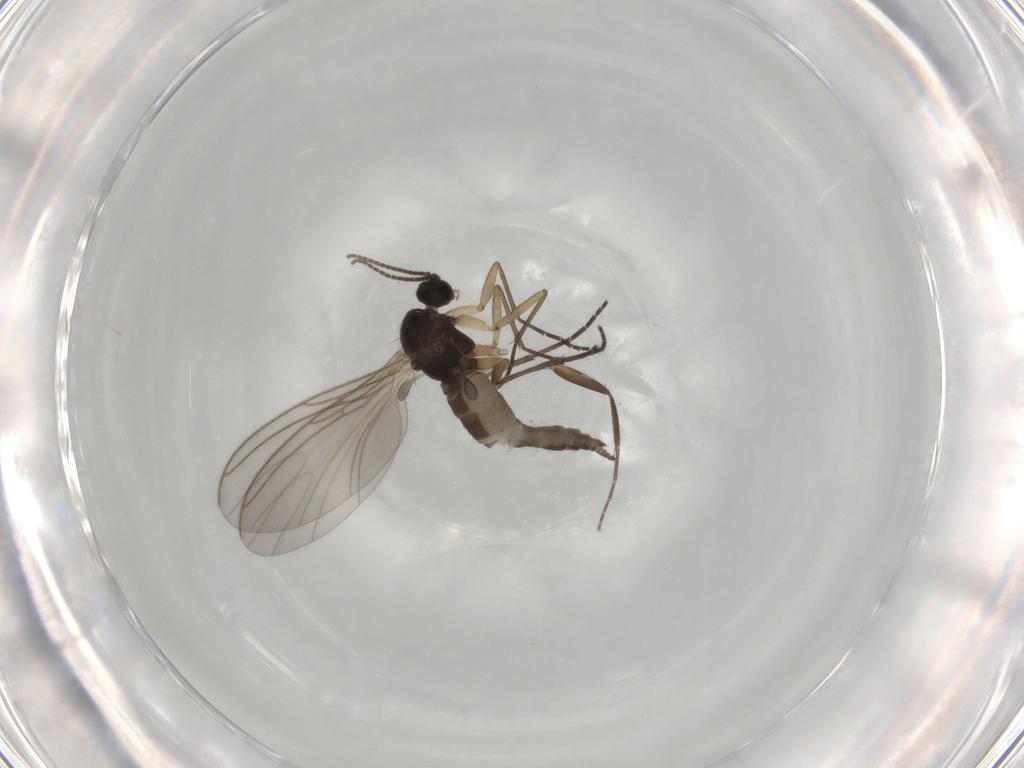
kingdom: Animalia
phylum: Arthropoda
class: Insecta
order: Diptera
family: Sciaridae
